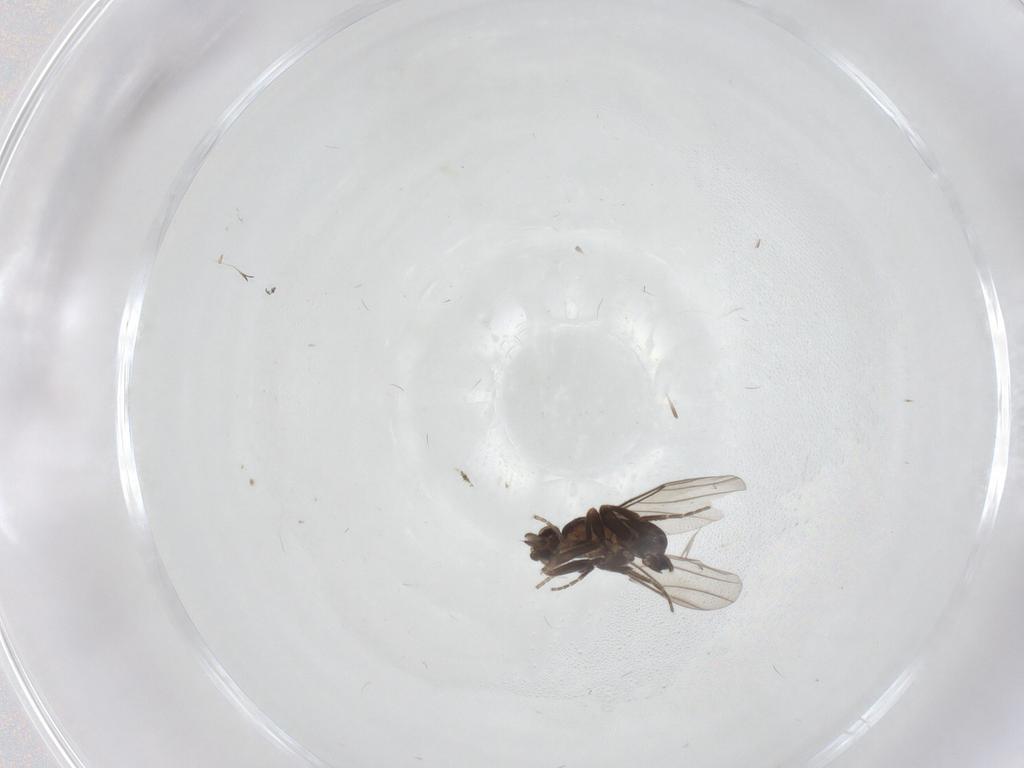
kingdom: Animalia
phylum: Arthropoda
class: Insecta
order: Diptera
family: Phoridae
